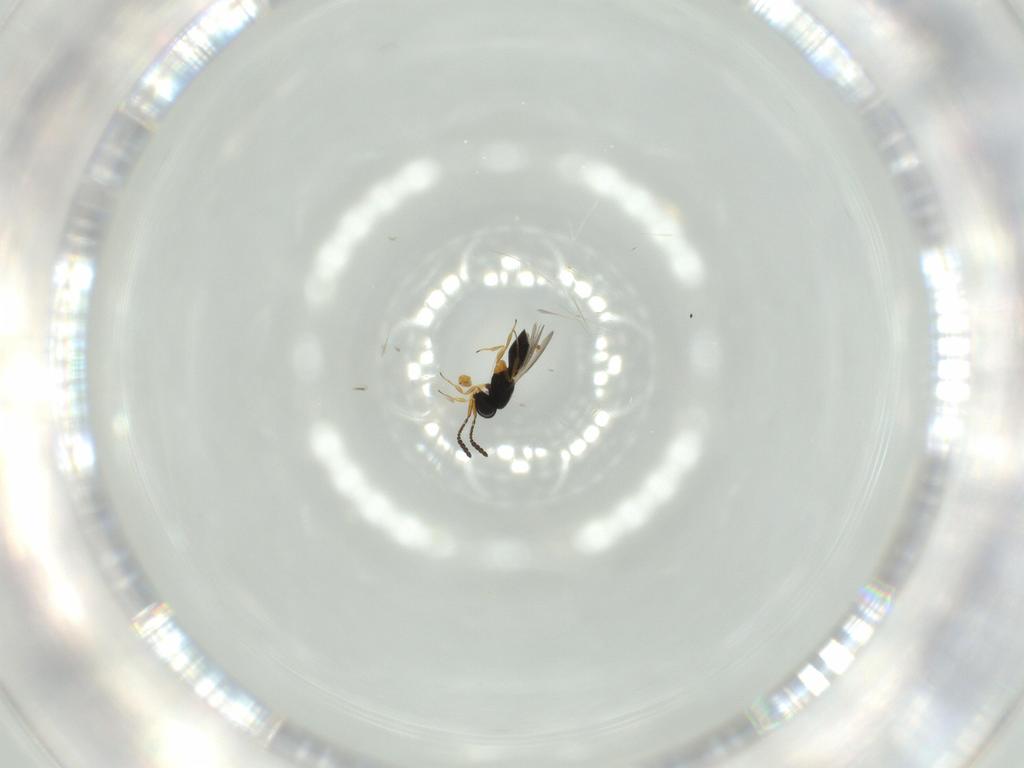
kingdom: Animalia
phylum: Arthropoda
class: Insecta
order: Hymenoptera
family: Scelionidae
